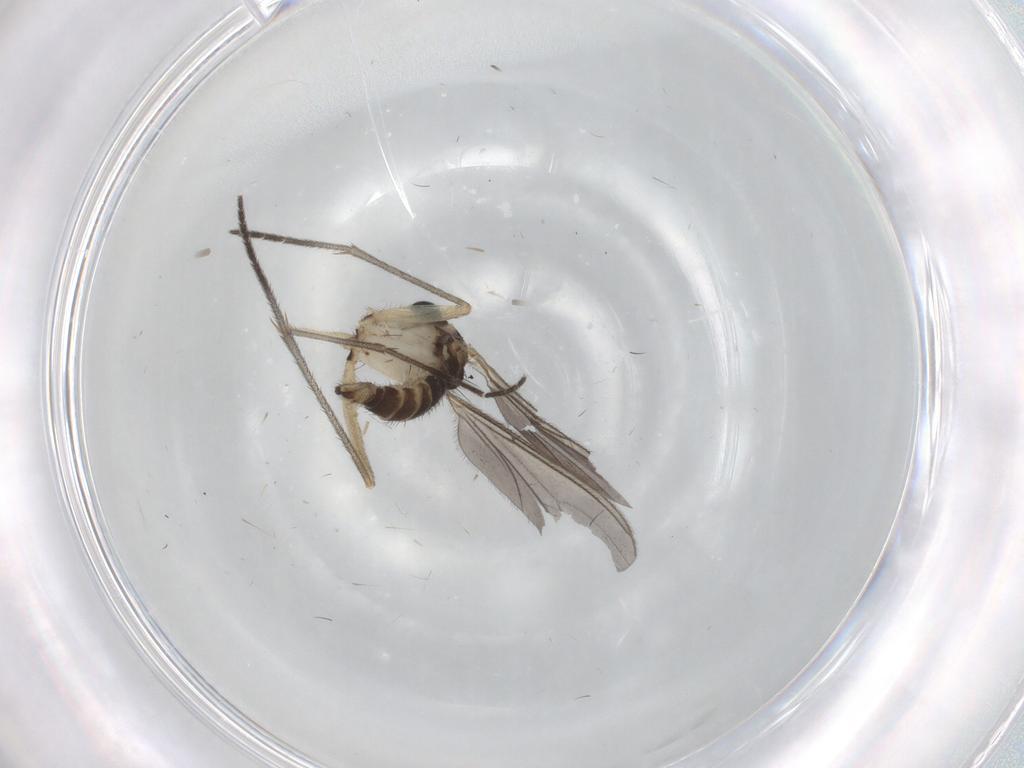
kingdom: Animalia
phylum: Arthropoda
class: Insecta
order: Diptera
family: Sciaridae
